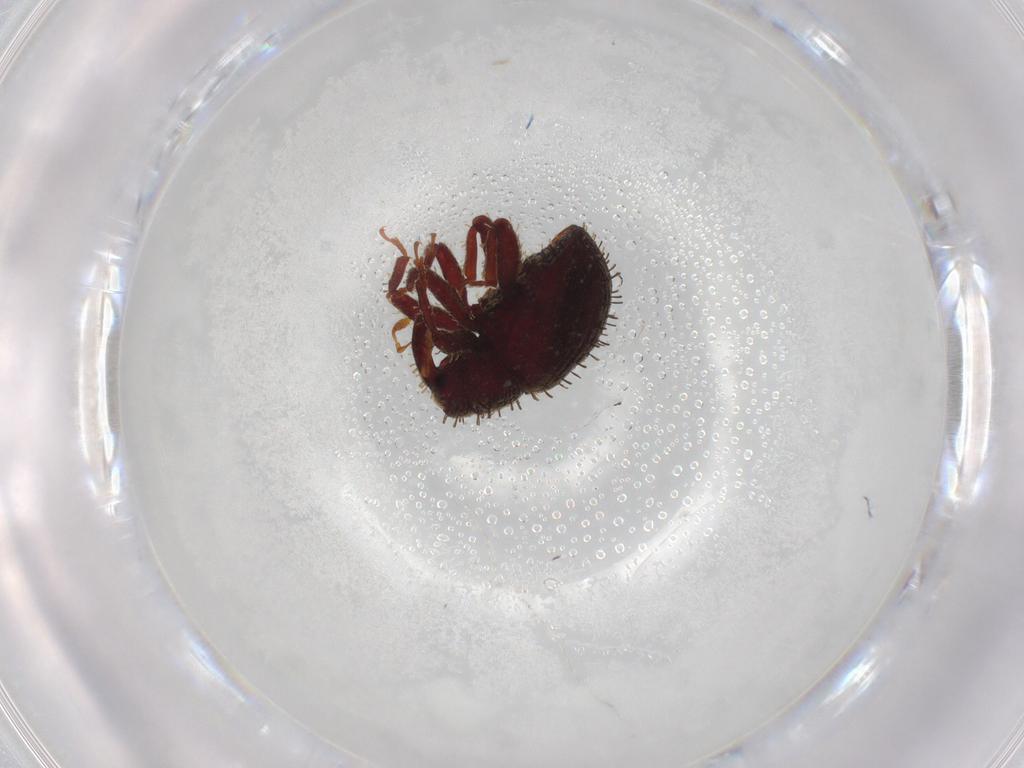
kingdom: Animalia
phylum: Arthropoda
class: Insecta
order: Coleoptera
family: Curculionidae
